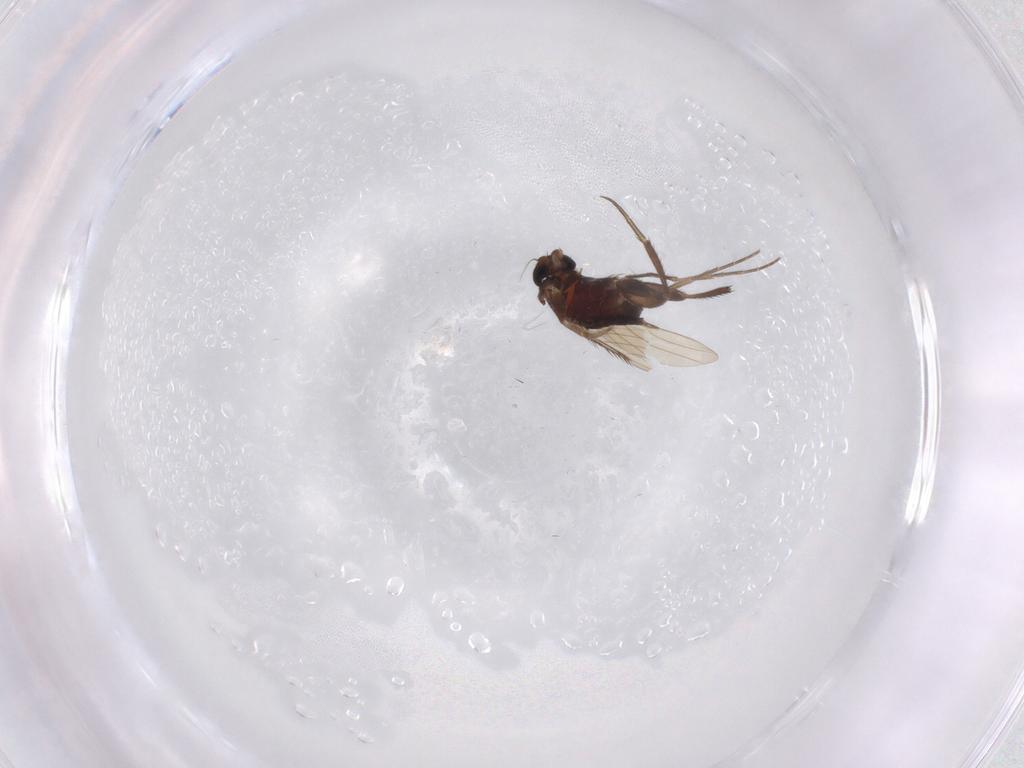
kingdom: Animalia
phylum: Arthropoda
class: Insecta
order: Diptera
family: Phoridae
